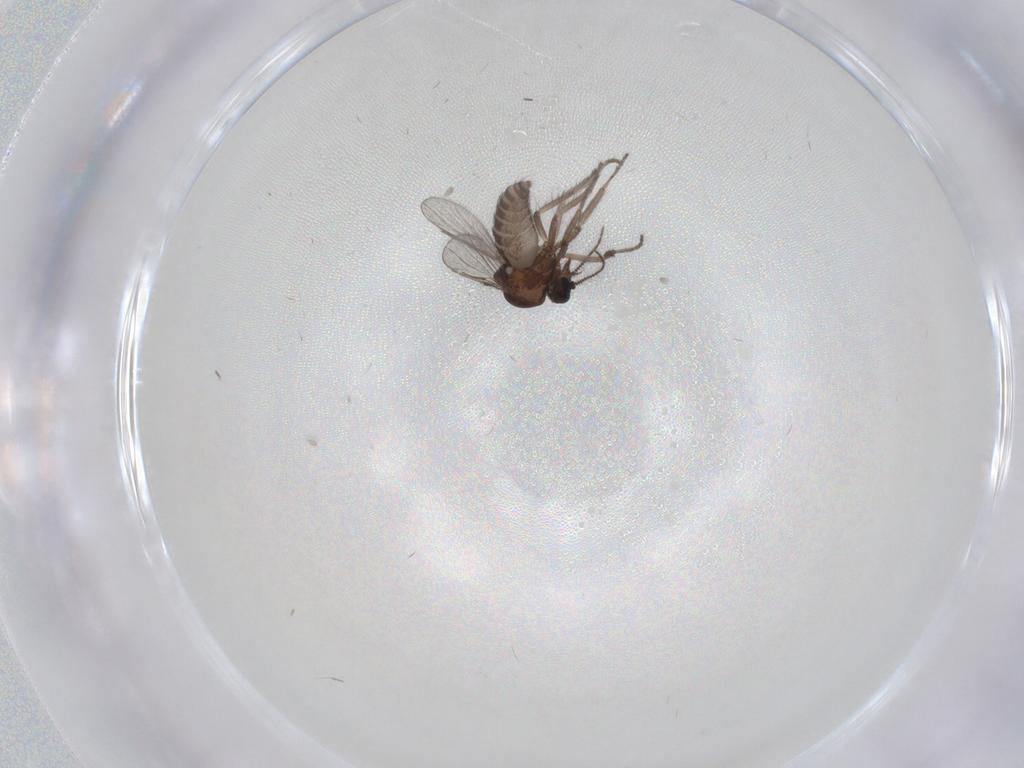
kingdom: Animalia
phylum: Arthropoda
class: Insecta
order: Diptera
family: Chironomidae
